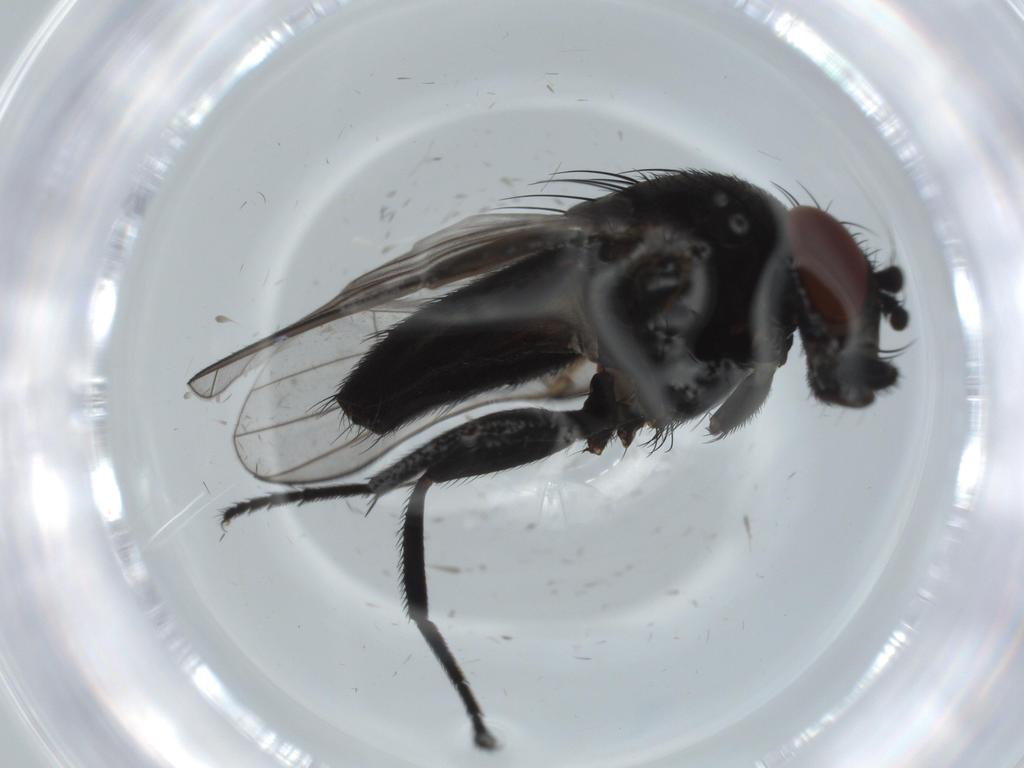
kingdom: Animalia
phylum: Arthropoda
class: Insecta
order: Diptera
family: Milichiidae
